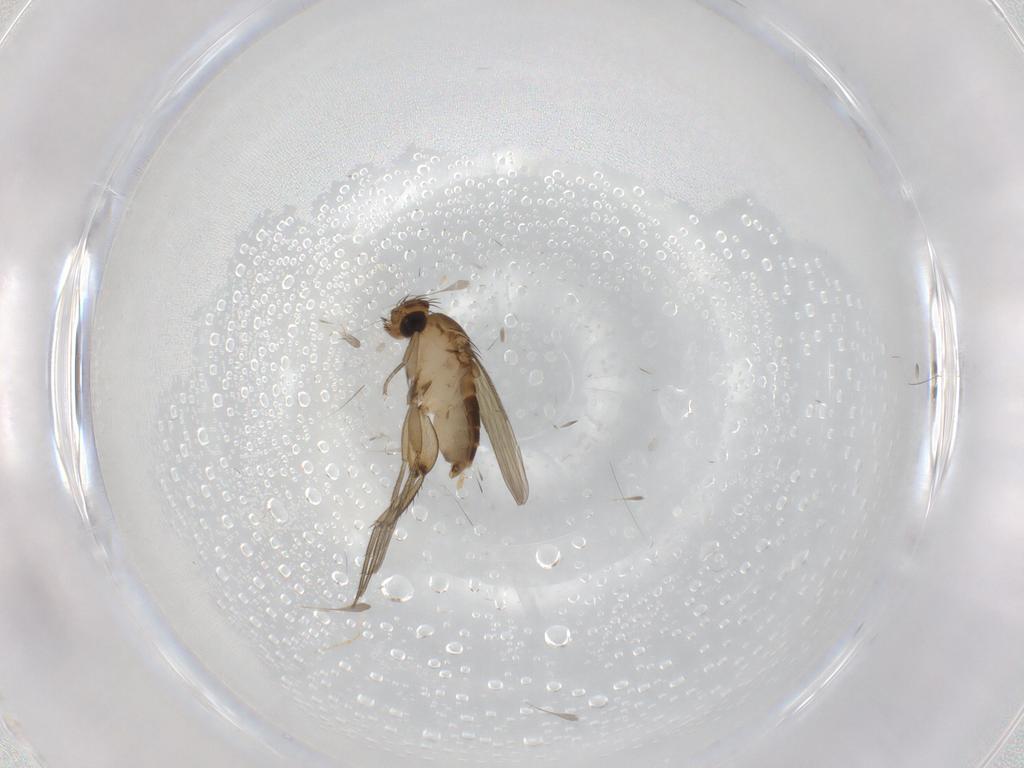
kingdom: Animalia
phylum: Arthropoda
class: Insecta
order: Diptera
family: Phoridae
